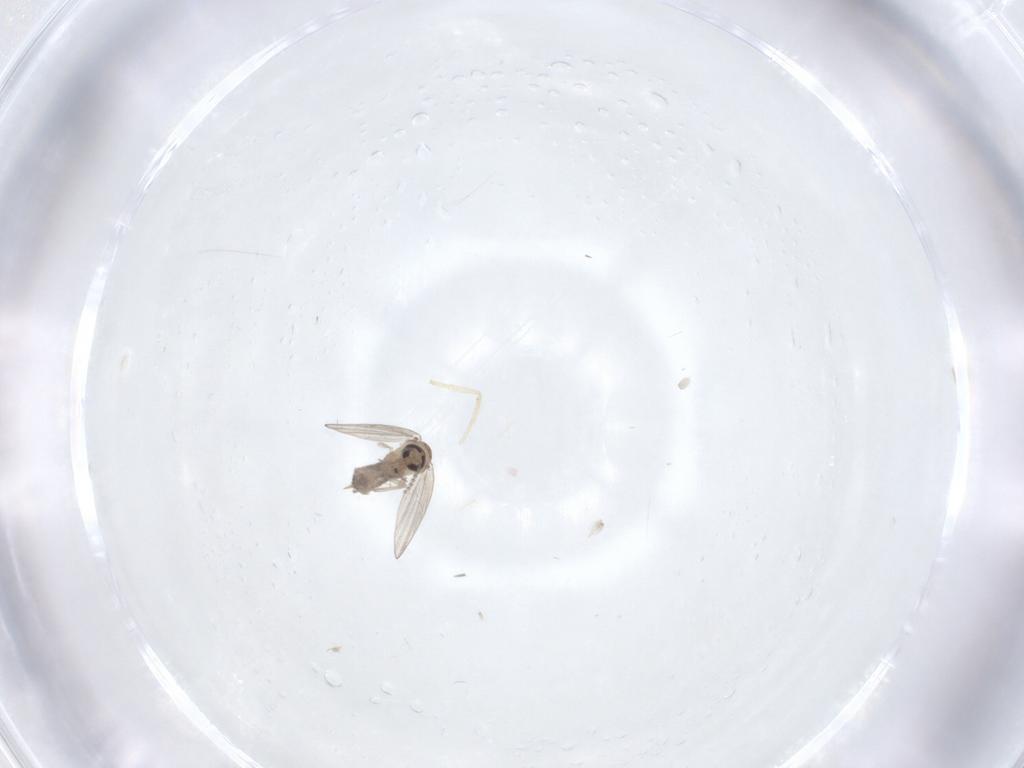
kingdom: Animalia
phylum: Arthropoda
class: Insecta
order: Diptera
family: Psychodidae
